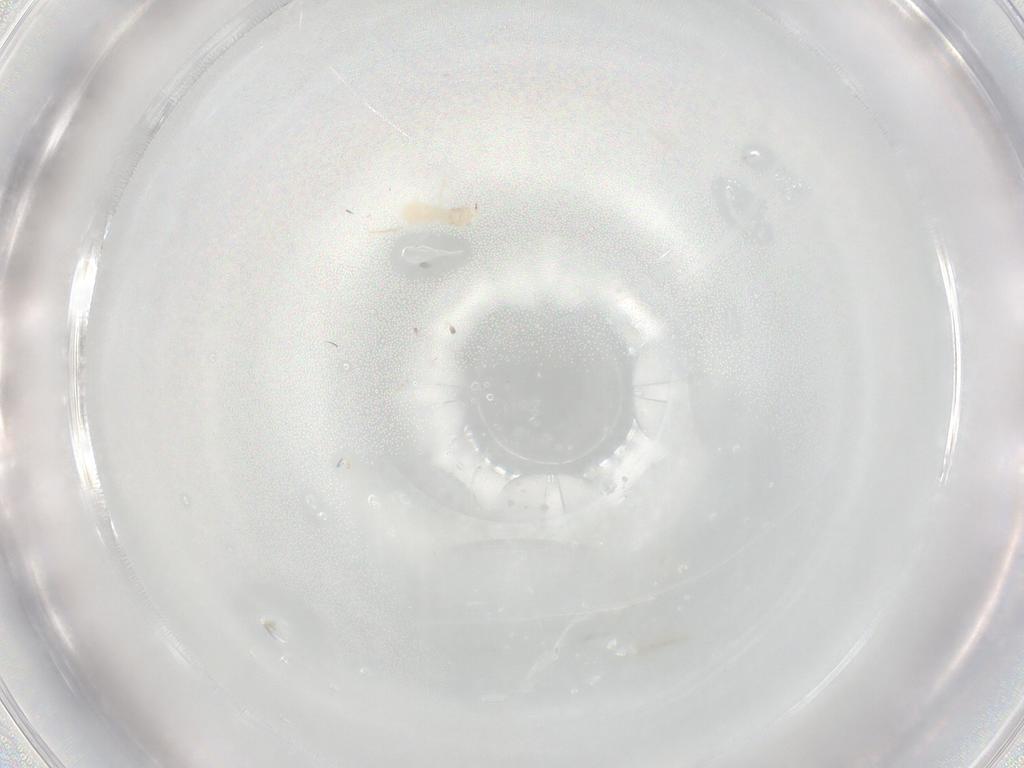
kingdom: Animalia
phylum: Arthropoda
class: Insecta
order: Diptera
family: Cecidomyiidae
